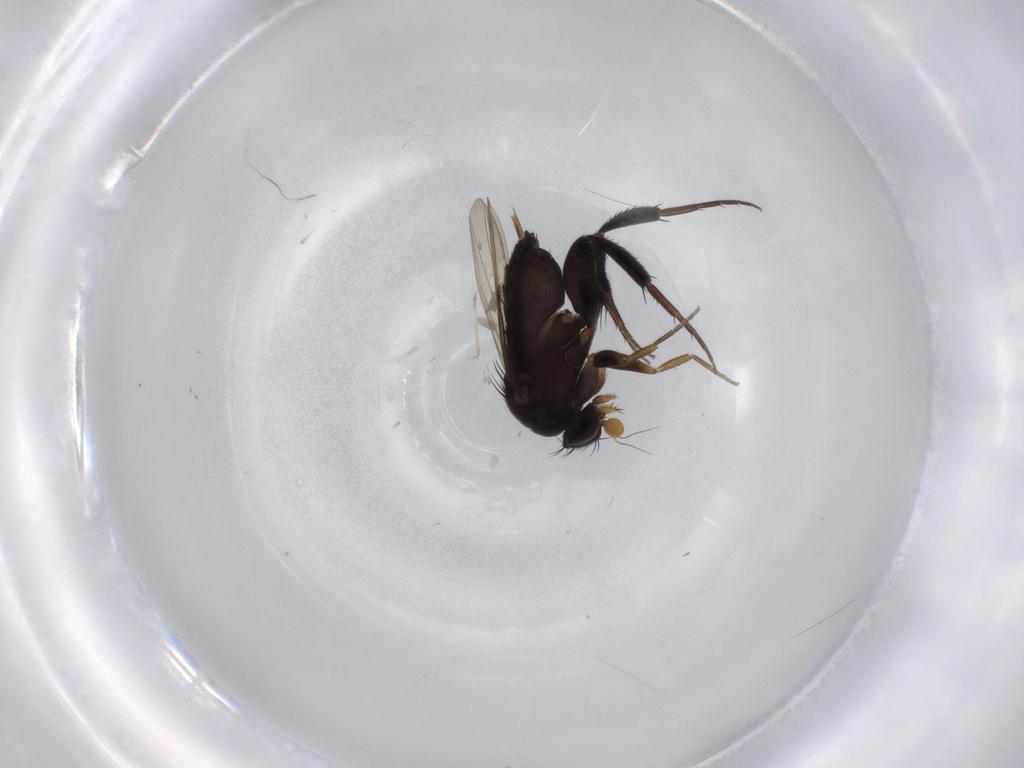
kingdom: Animalia
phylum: Arthropoda
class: Insecta
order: Diptera
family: Phoridae
